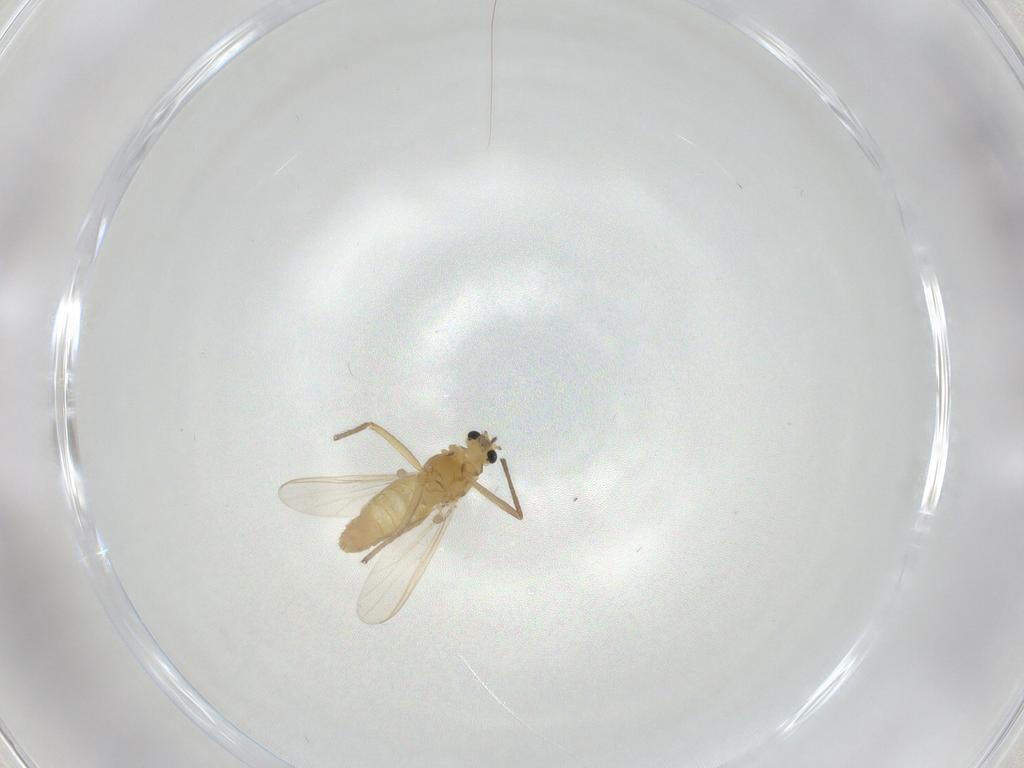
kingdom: Animalia
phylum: Arthropoda
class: Insecta
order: Diptera
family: Chironomidae
